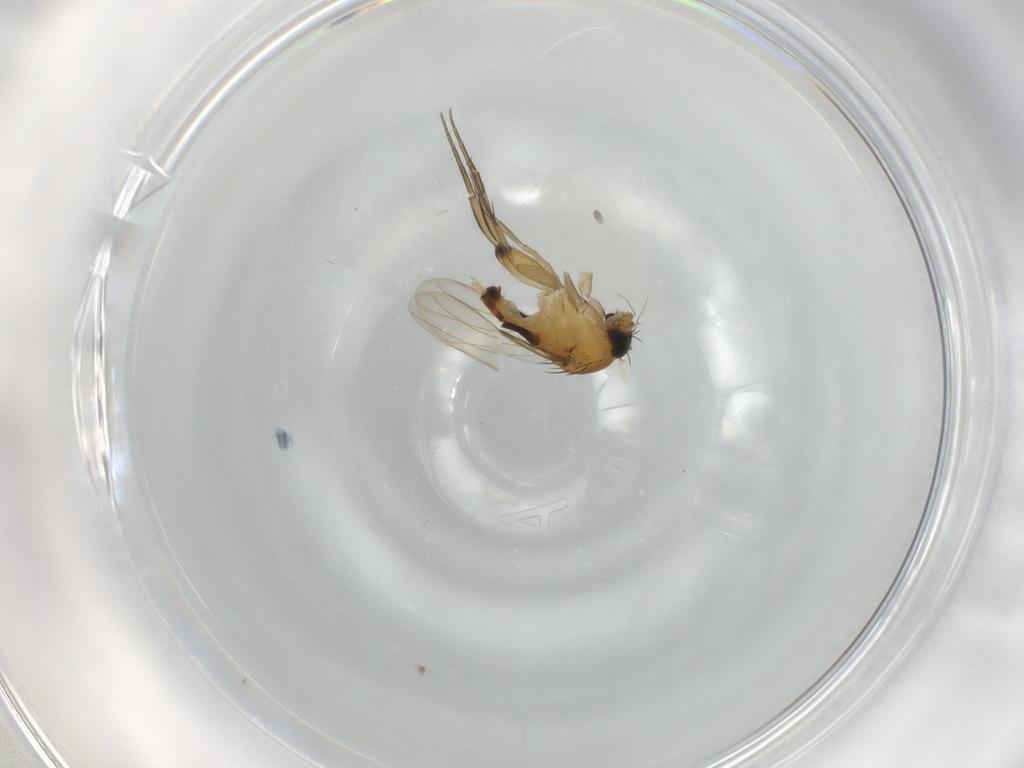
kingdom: Animalia
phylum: Arthropoda
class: Insecta
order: Diptera
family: Phoridae
